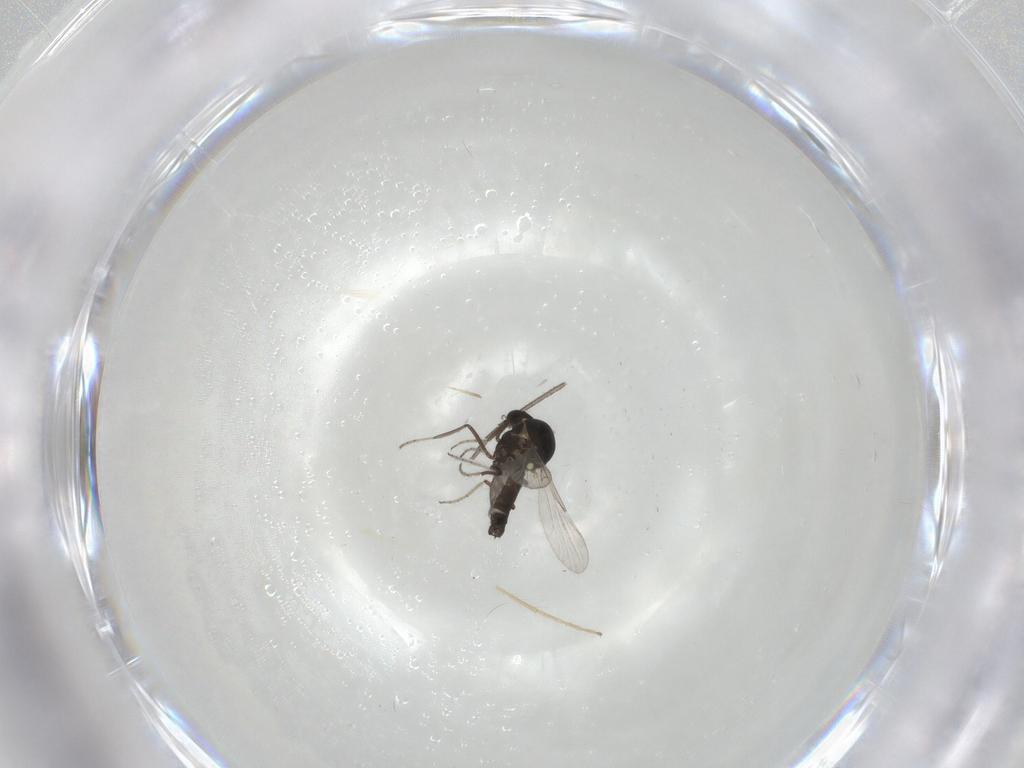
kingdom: Animalia
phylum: Arthropoda
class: Insecta
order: Diptera
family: Ceratopogonidae
